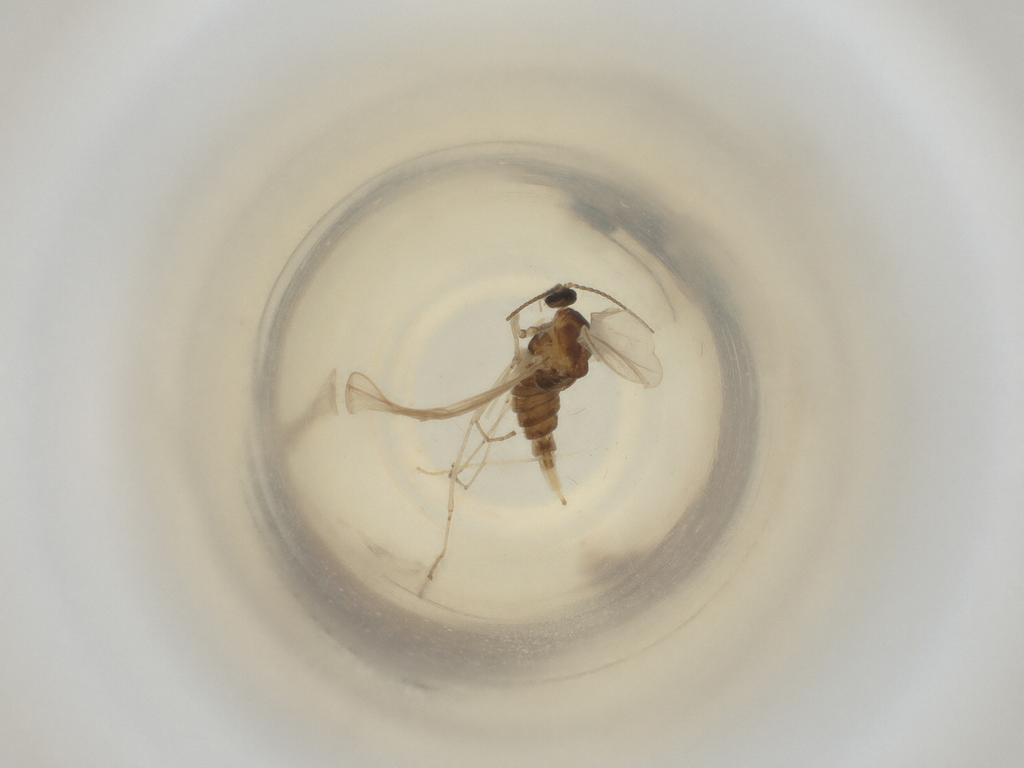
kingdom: Animalia
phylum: Arthropoda
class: Insecta
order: Diptera
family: Cecidomyiidae
